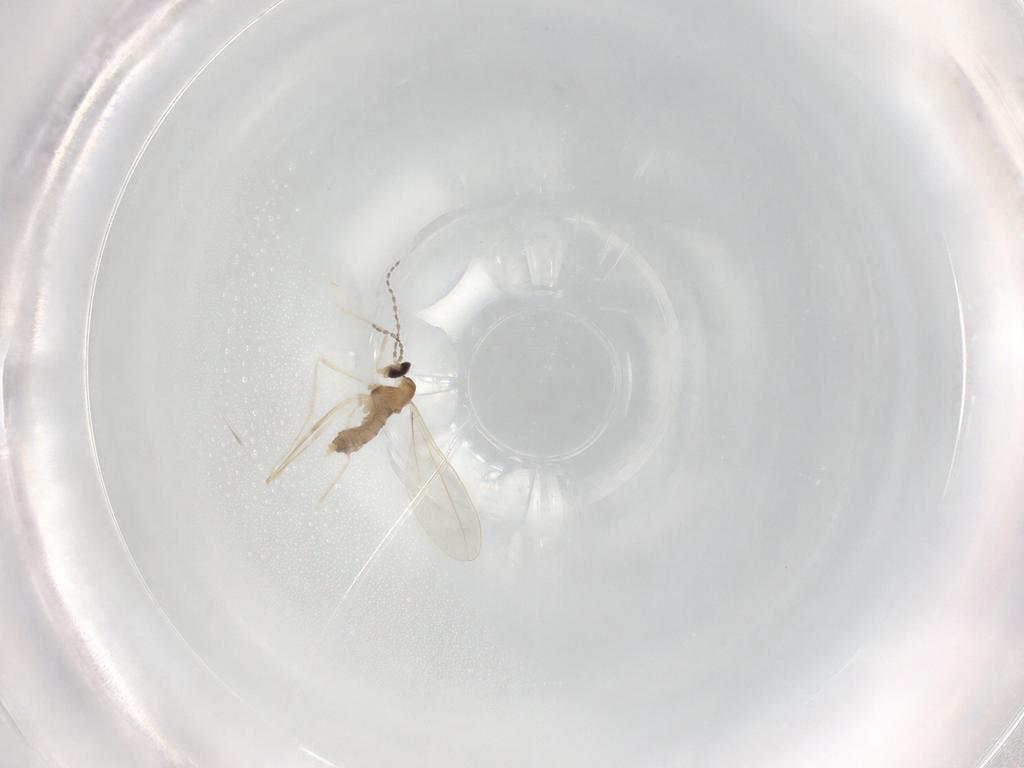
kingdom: Animalia
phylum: Arthropoda
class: Insecta
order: Diptera
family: Cecidomyiidae
